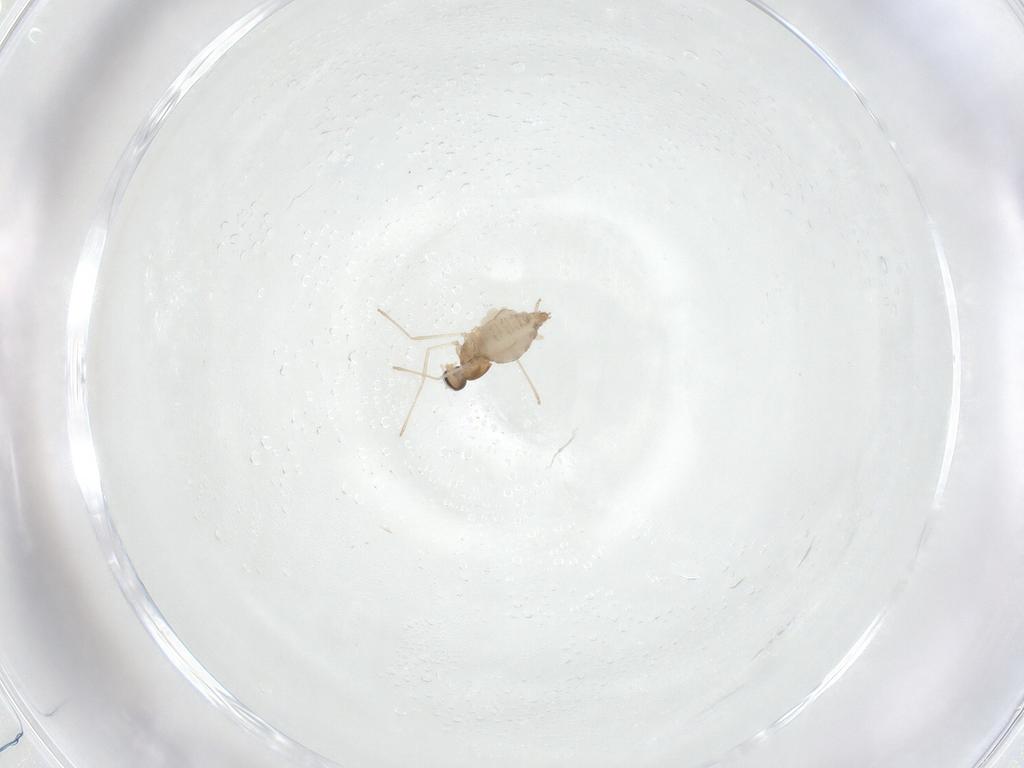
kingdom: Animalia
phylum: Arthropoda
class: Insecta
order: Diptera
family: Cecidomyiidae
